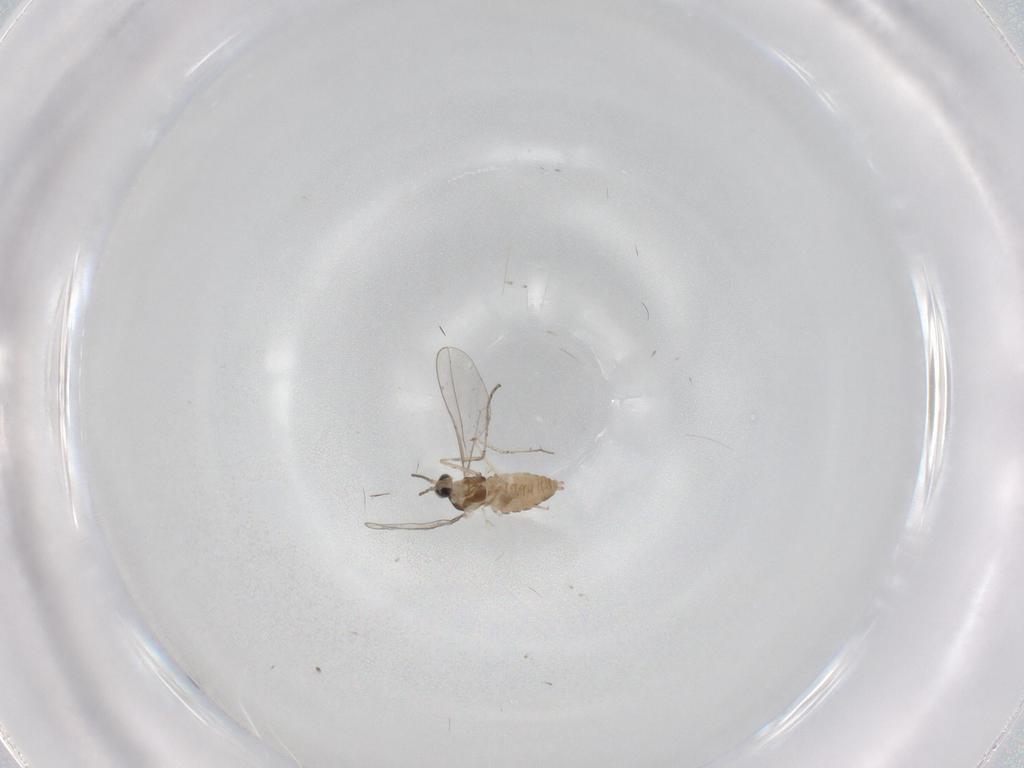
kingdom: Animalia
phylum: Arthropoda
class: Insecta
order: Diptera
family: Cecidomyiidae
